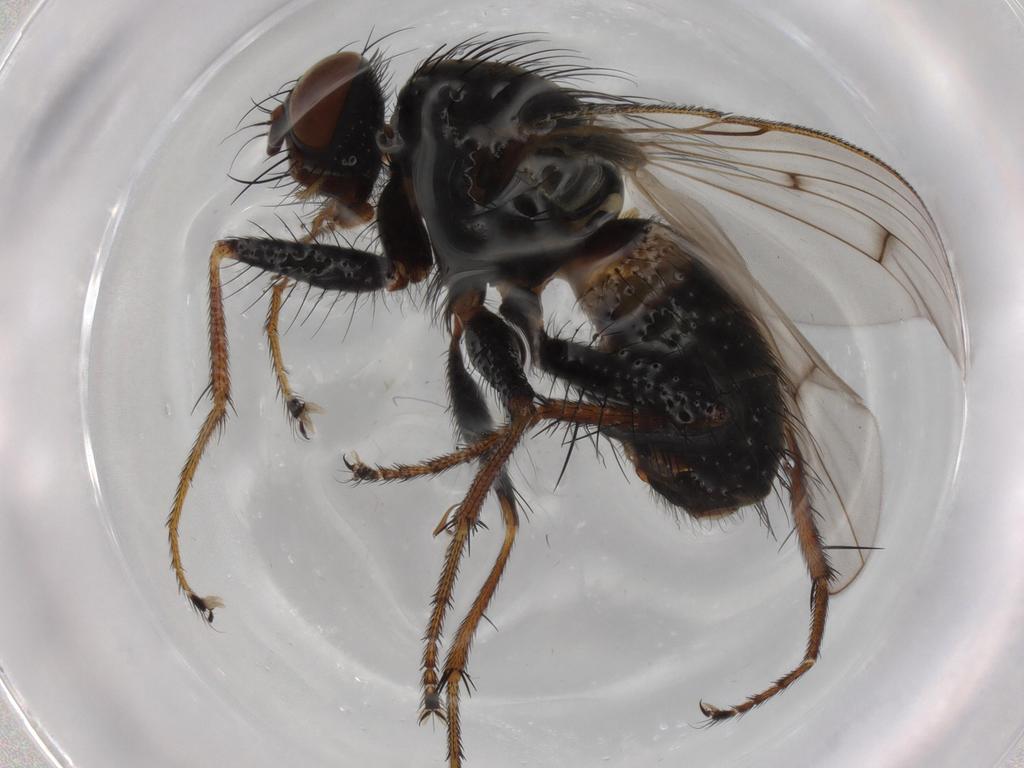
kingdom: Animalia
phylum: Arthropoda
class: Insecta
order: Diptera
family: Muscidae
